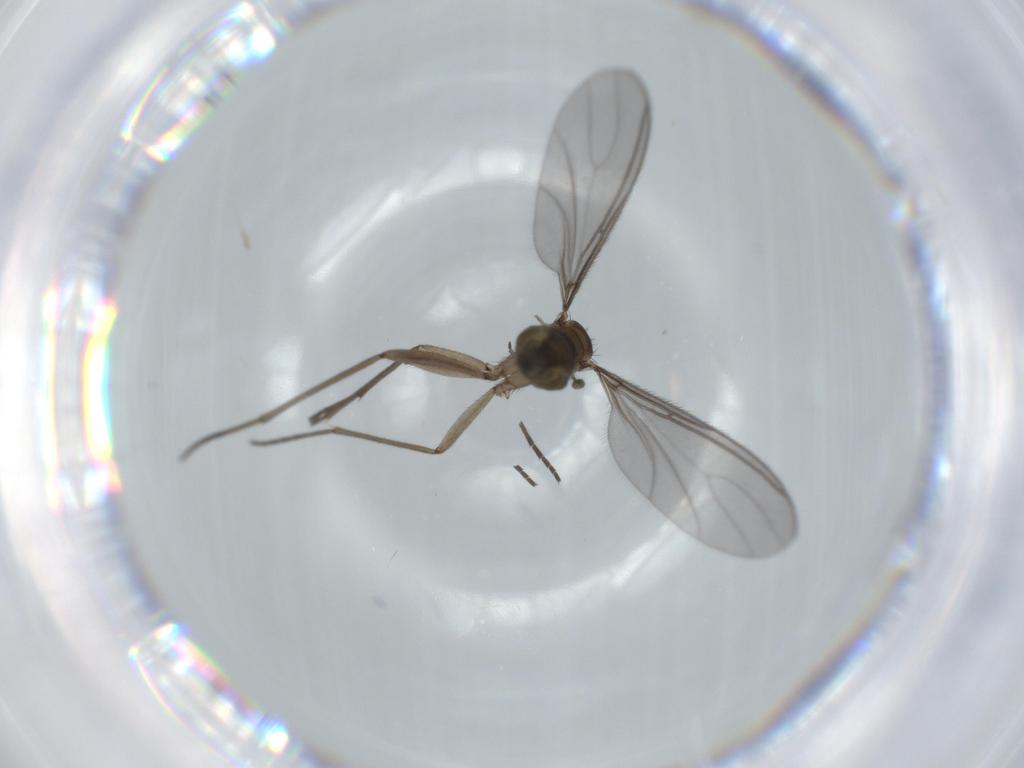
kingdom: Animalia
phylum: Arthropoda
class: Insecta
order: Diptera
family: Sciaridae
